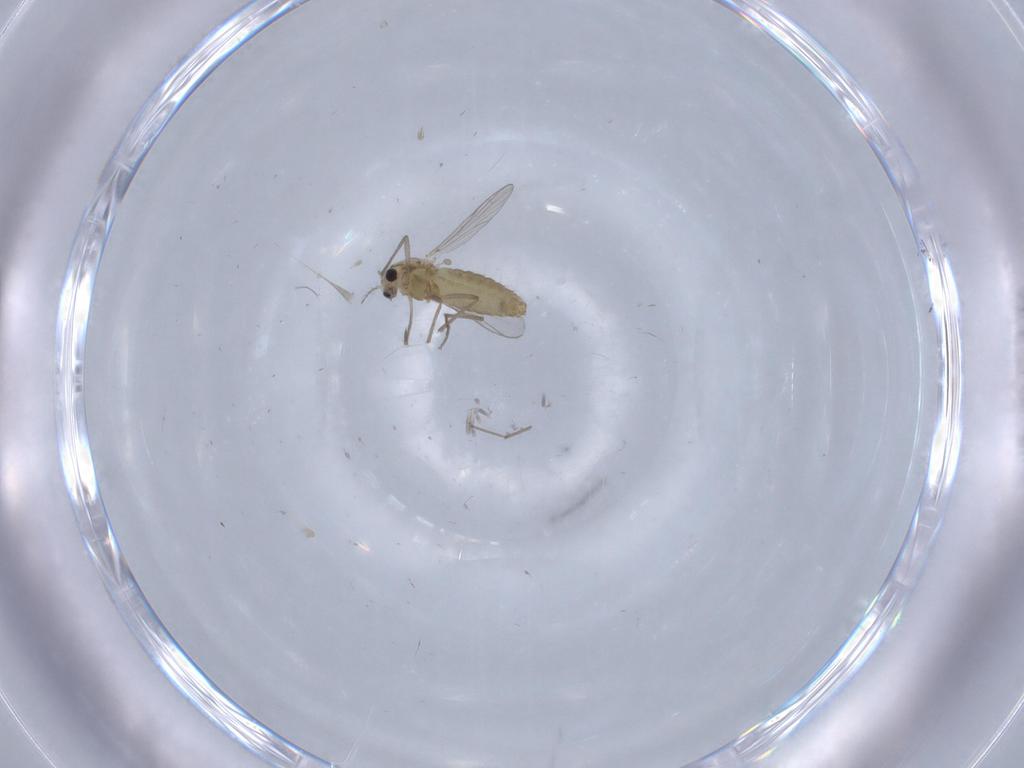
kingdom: Animalia
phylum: Arthropoda
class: Insecta
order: Diptera
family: Chironomidae
